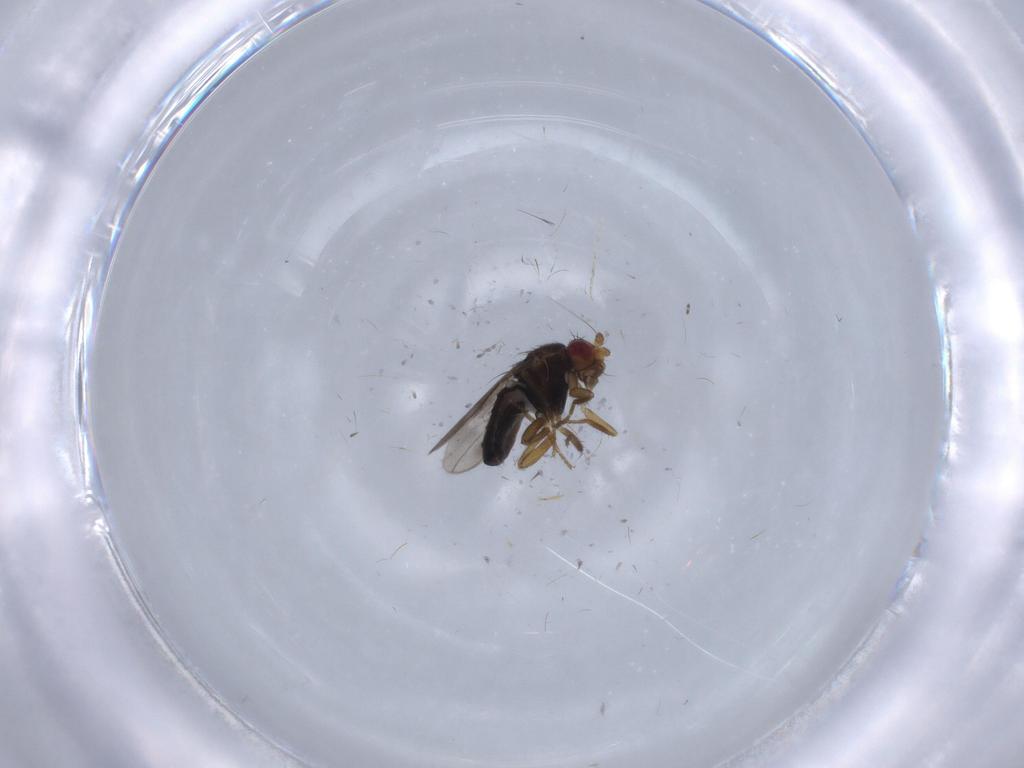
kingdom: Animalia
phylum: Arthropoda
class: Insecta
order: Diptera
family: Sphaeroceridae
